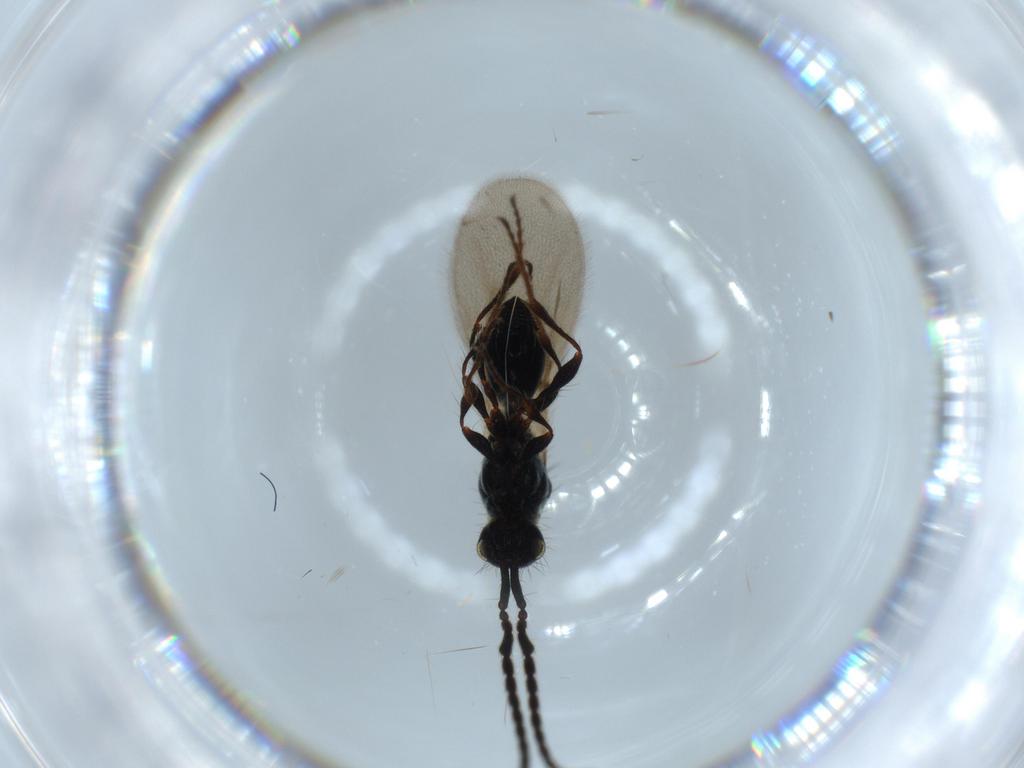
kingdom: Animalia
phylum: Arthropoda
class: Insecta
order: Hymenoptera
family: Diapriidae
